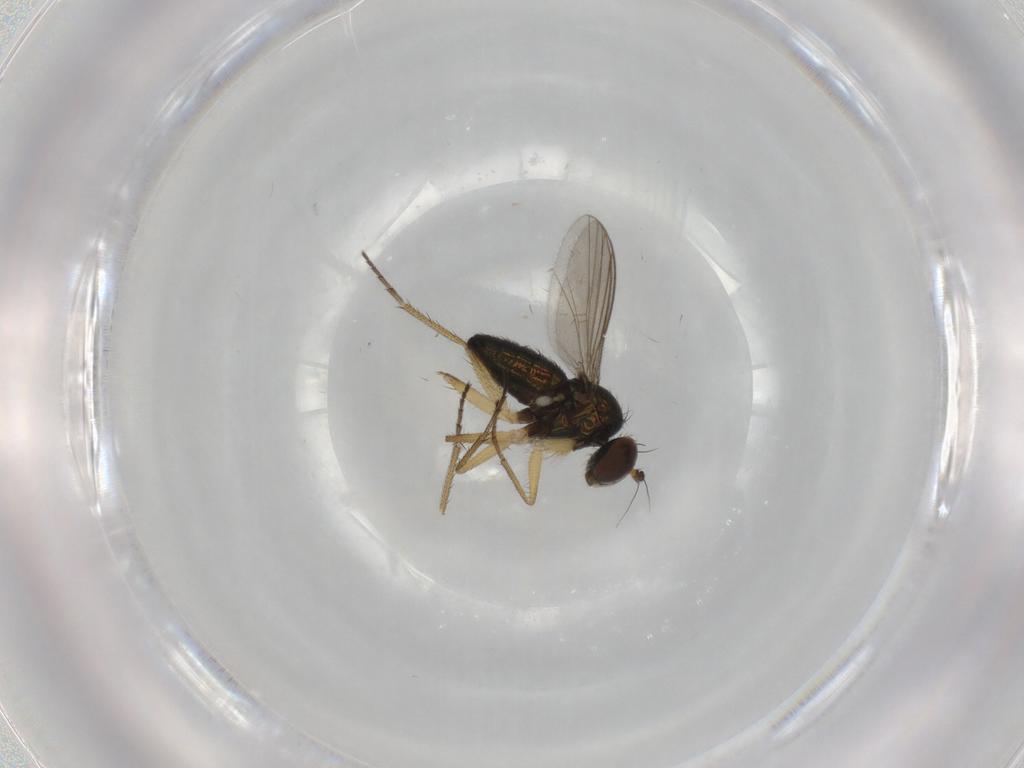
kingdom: Animalia
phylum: Arthropoda
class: Insecta
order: Diptera
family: Dolichopodidae
